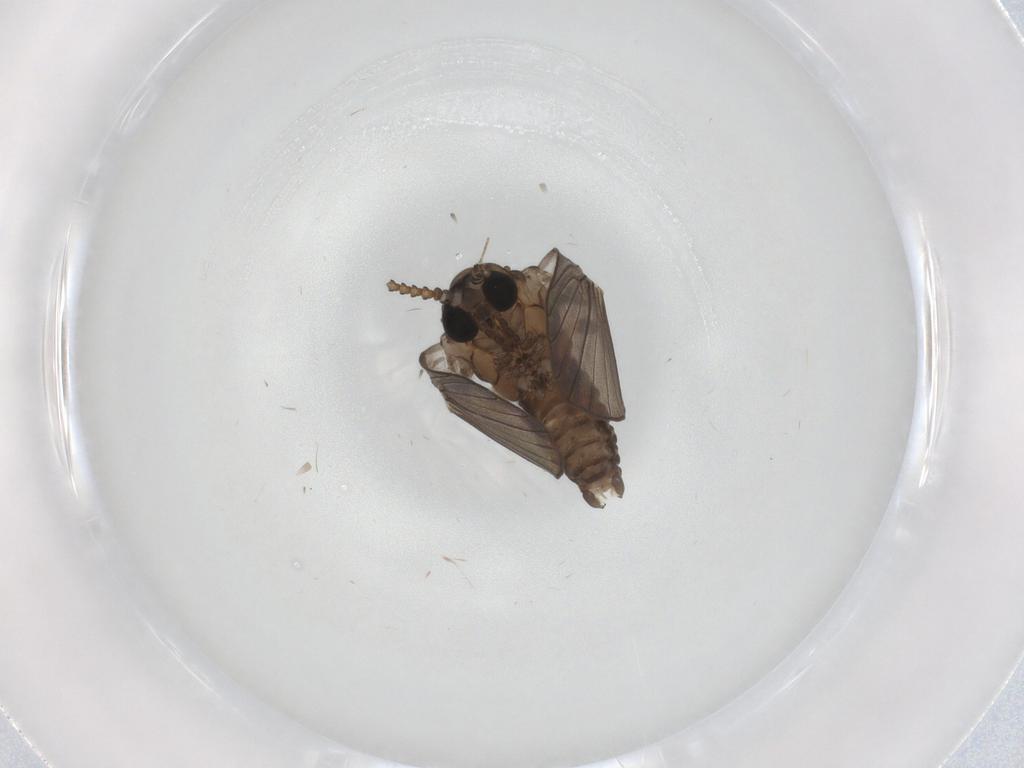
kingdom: Animalia
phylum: Arthropoda
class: Insecta
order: Diptera
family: Psychodidae
